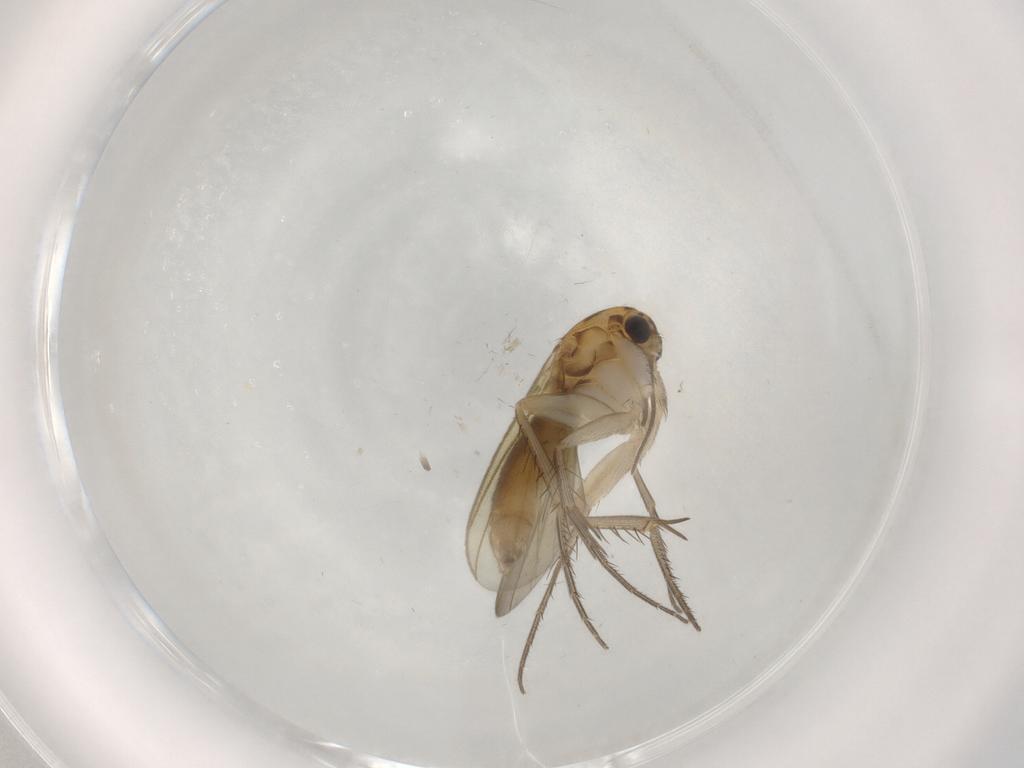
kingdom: Animalia
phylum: Arthropoda
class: Insecta
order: Diptera
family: Mycetophilidae
